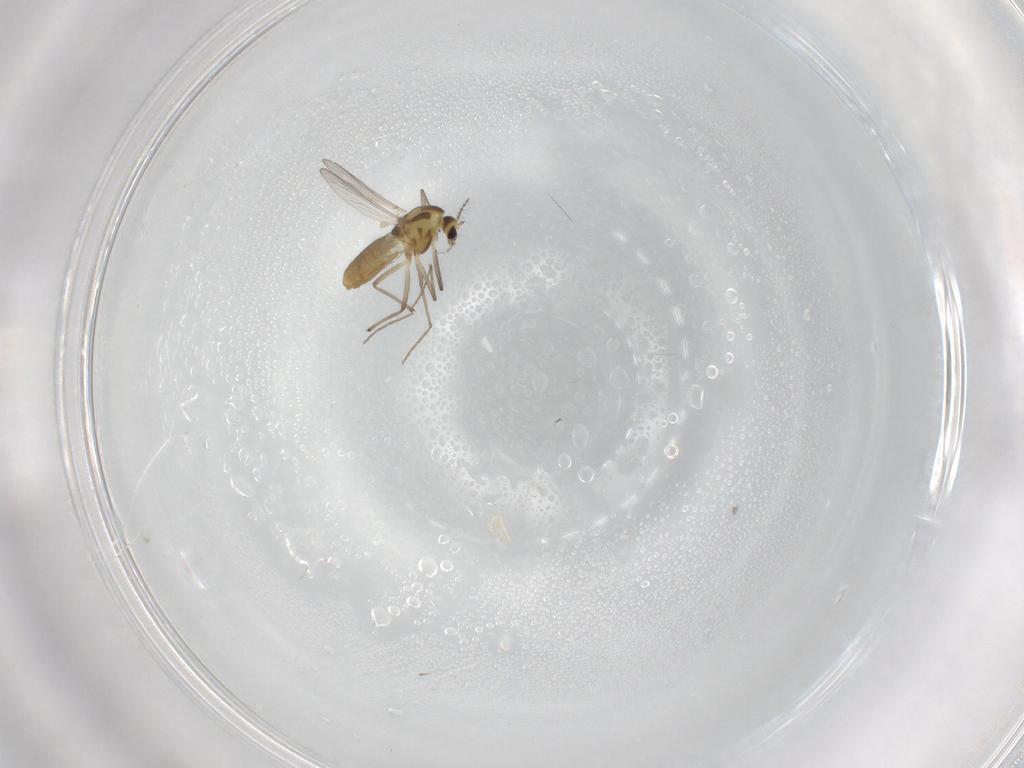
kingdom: Animalia
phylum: Arthropoda
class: Insecta
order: Diptera
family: Cecidomyiidae
